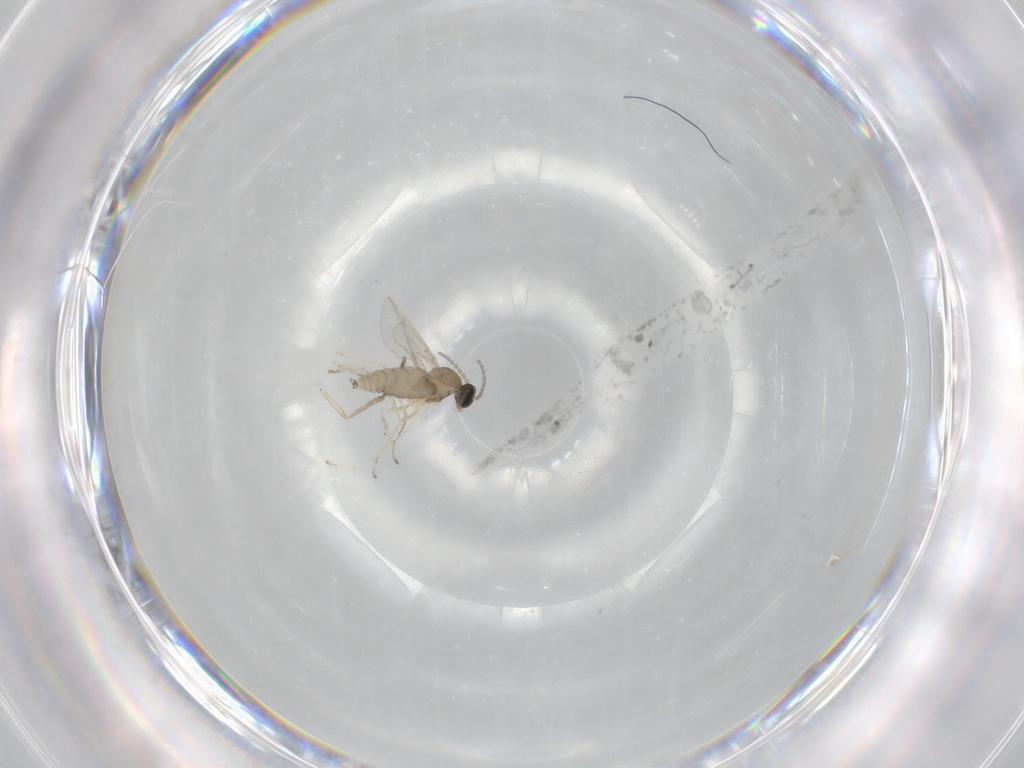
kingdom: Animalia
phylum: Arthropoda
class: Insecta
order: Diptera
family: Cecidomyiidae
